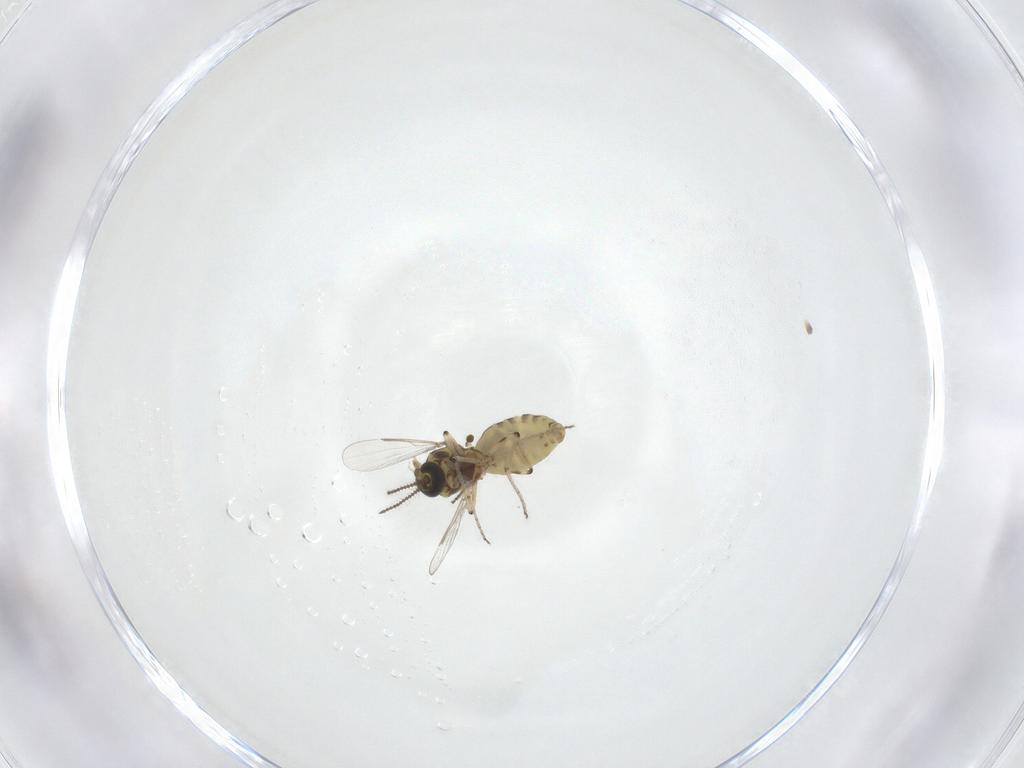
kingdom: Animalia
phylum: Arthropoda
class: Insecta
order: Diptera
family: Ceratopogonidae
